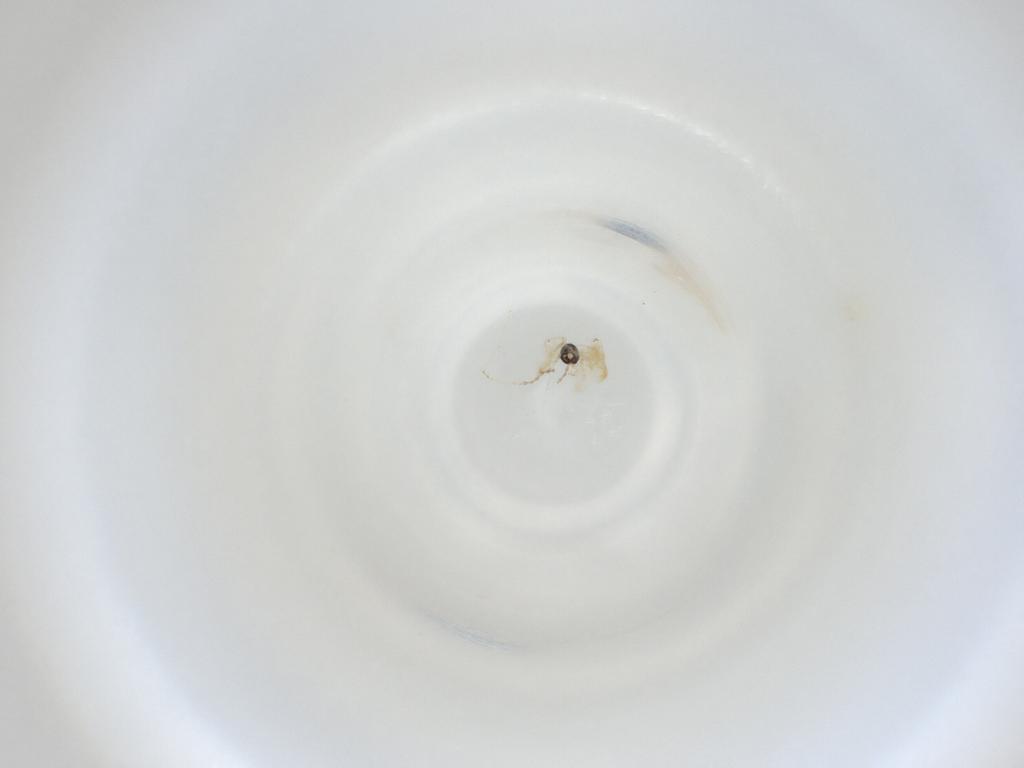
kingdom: Animalia
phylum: Arthropoda
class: Insecta
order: Diptera
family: Cecidomyiidae
